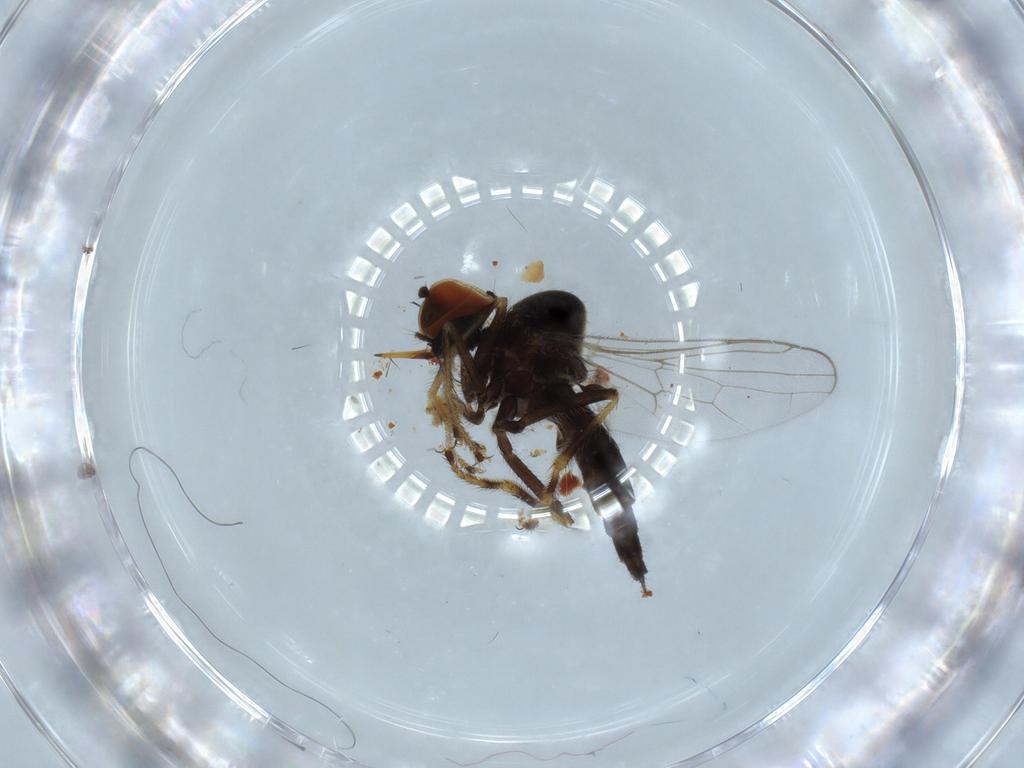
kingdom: Animalia
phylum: Arthropoda
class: Insecta
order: Diptera
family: Hybotidae
